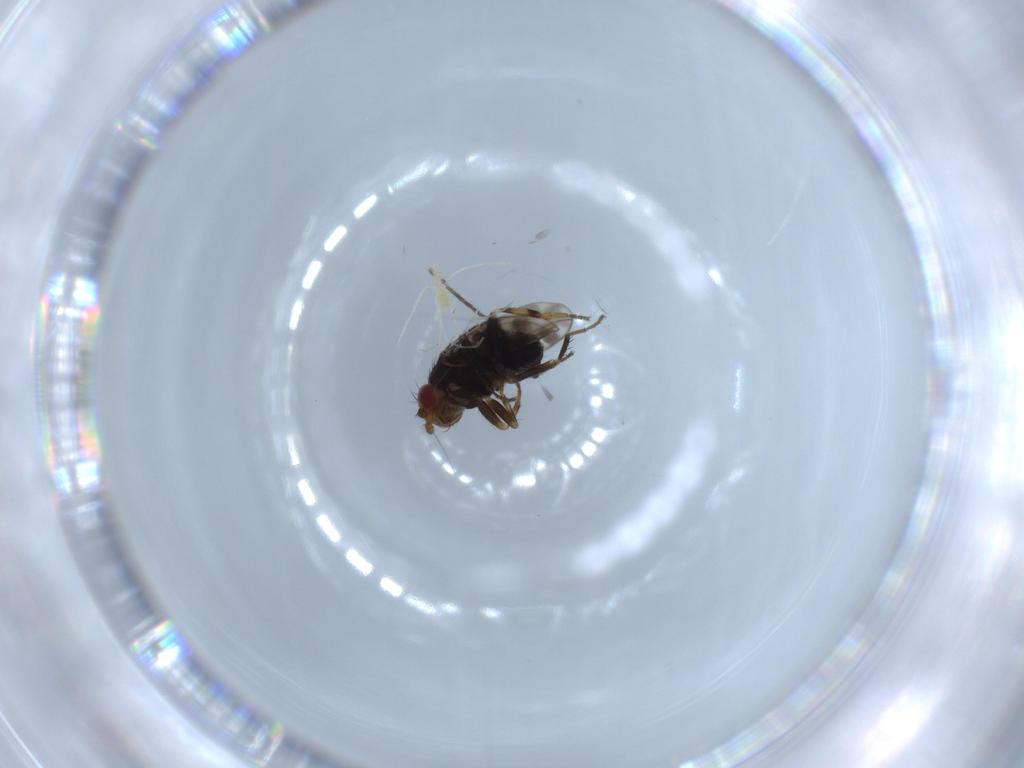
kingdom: Animalia
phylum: Arthropoda
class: Insecta
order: Diptera
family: Sphaeroceridae
